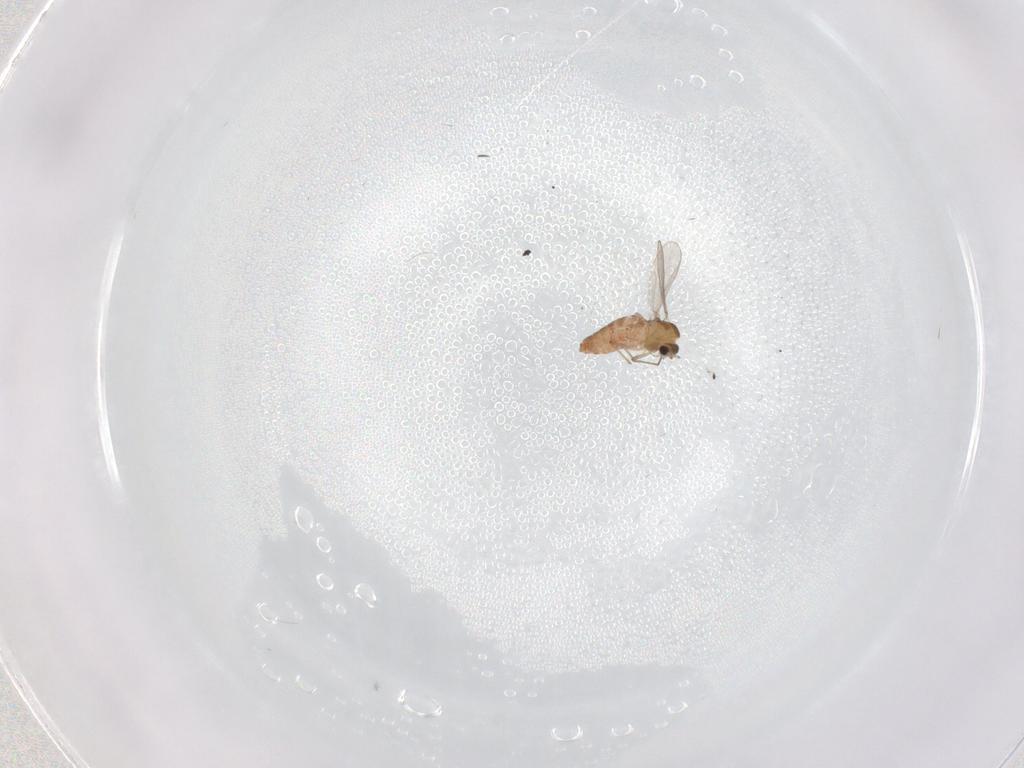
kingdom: Animalia
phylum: Arthropoda
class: Insecta
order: Diptera
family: Chironomidae
